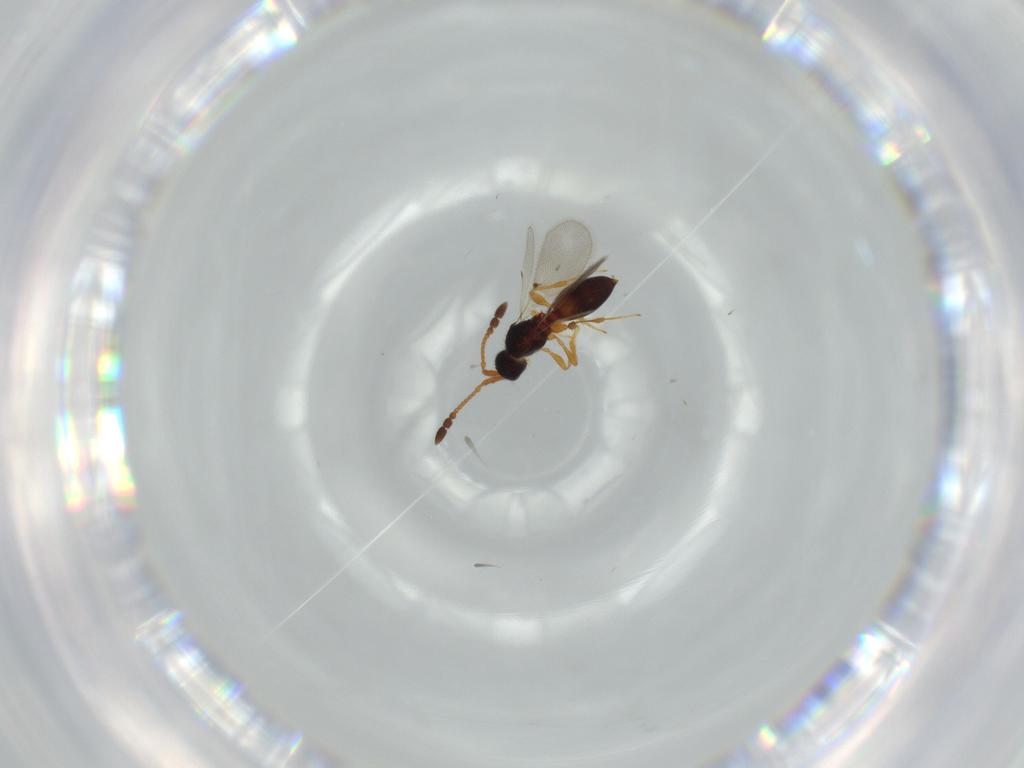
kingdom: Animalia
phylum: Arthropoda
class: Insecta
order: Hymenoptera
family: Diapriidae
